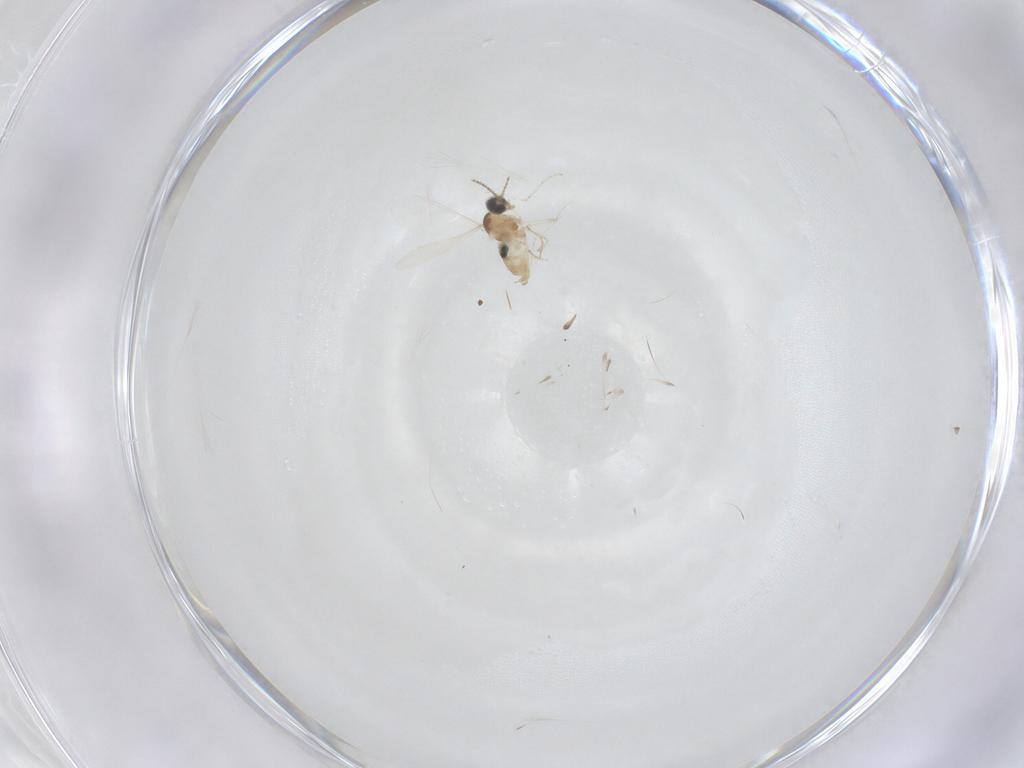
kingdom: Animalia
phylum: Arthropoda
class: Insecta
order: Diptera
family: Cecidomyiidae
